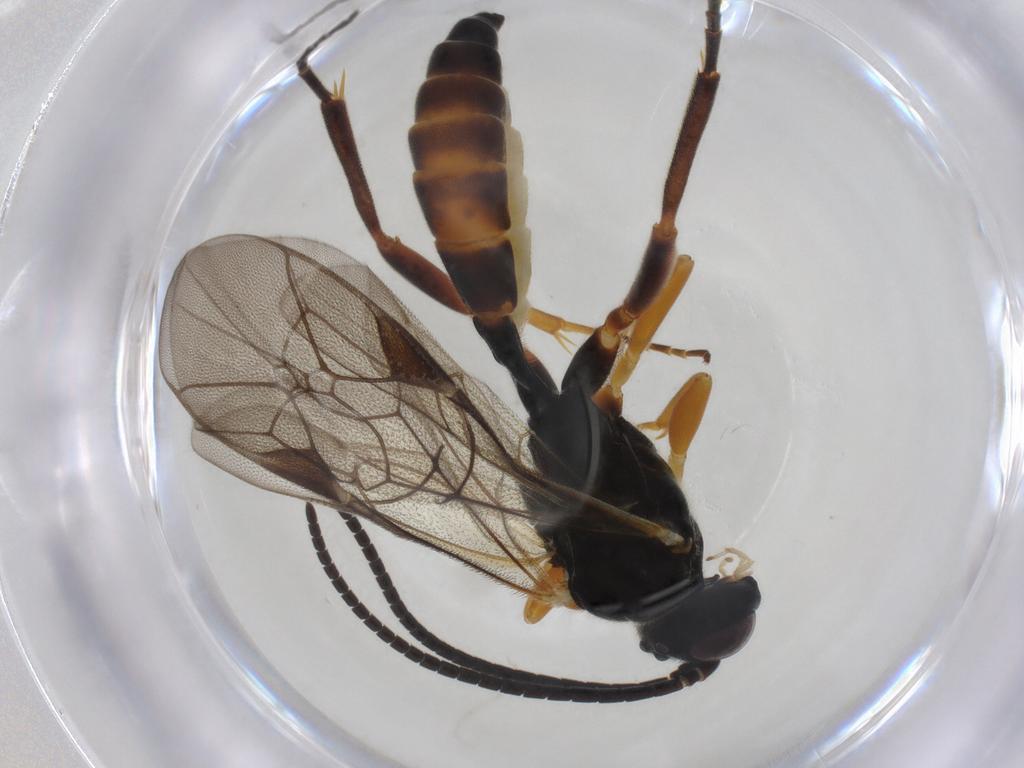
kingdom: Animalia
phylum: Arthropoda
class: Insecta
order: Hymenoptera
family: Ichneumonidae
